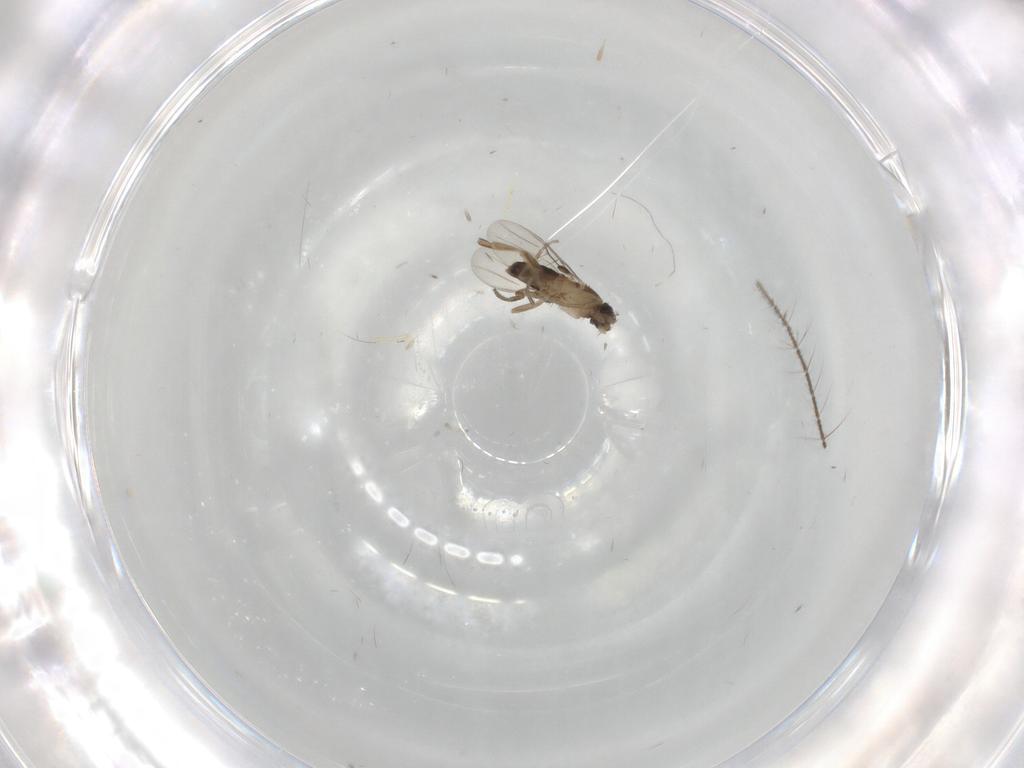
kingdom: Animalia
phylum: Arthropoda
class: Insecta
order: Diptera
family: Phoridae
